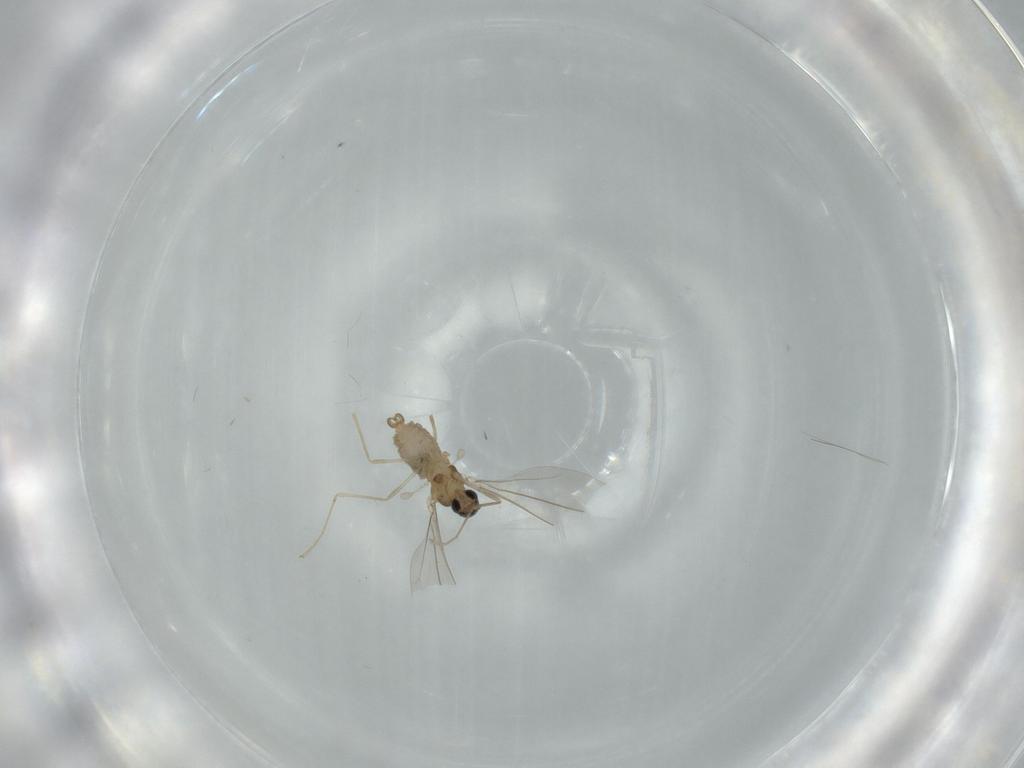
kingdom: Animalia
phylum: Arthropoda
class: Insecta
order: Diptera
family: Cecidomyiidae
